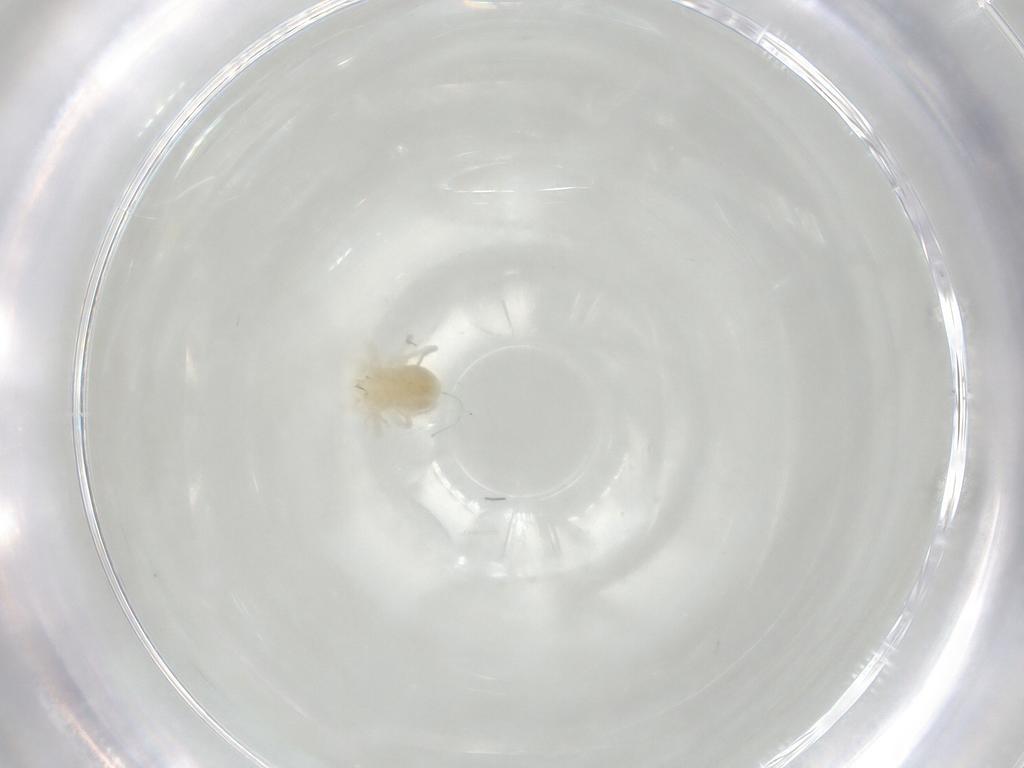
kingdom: Animalia
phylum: Arthropoda
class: Arachnida
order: Trombidiformes
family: Anystidae
